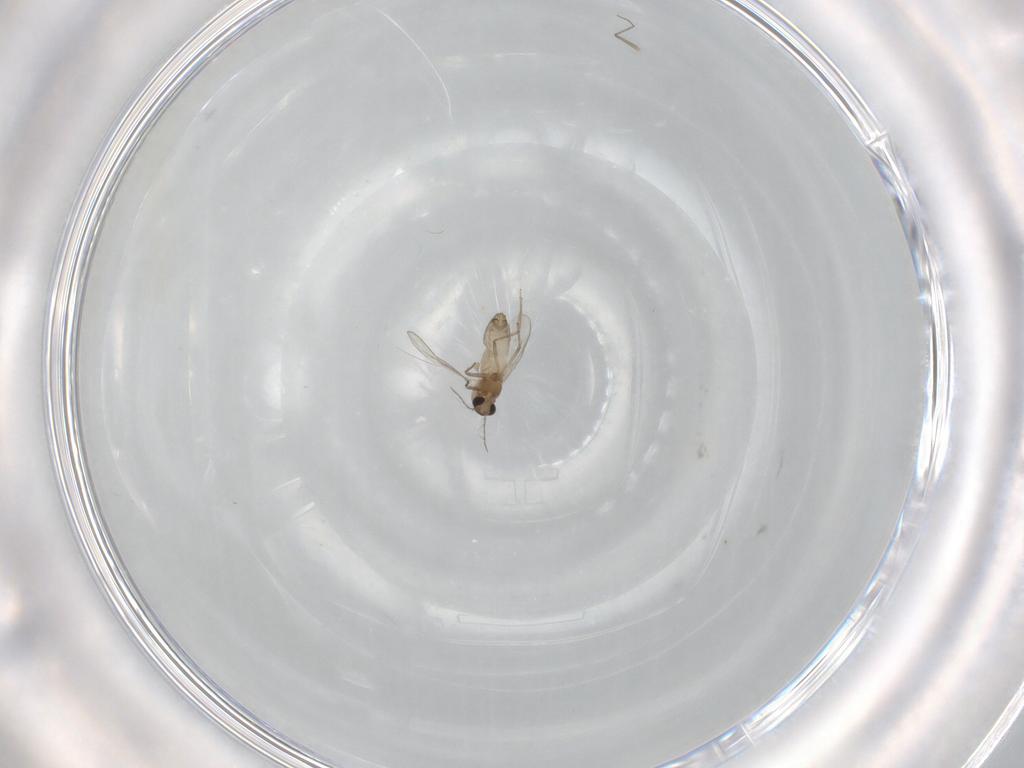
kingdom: Animalia
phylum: Arthropoda
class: Insecta
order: Diptera
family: Chironomidae
